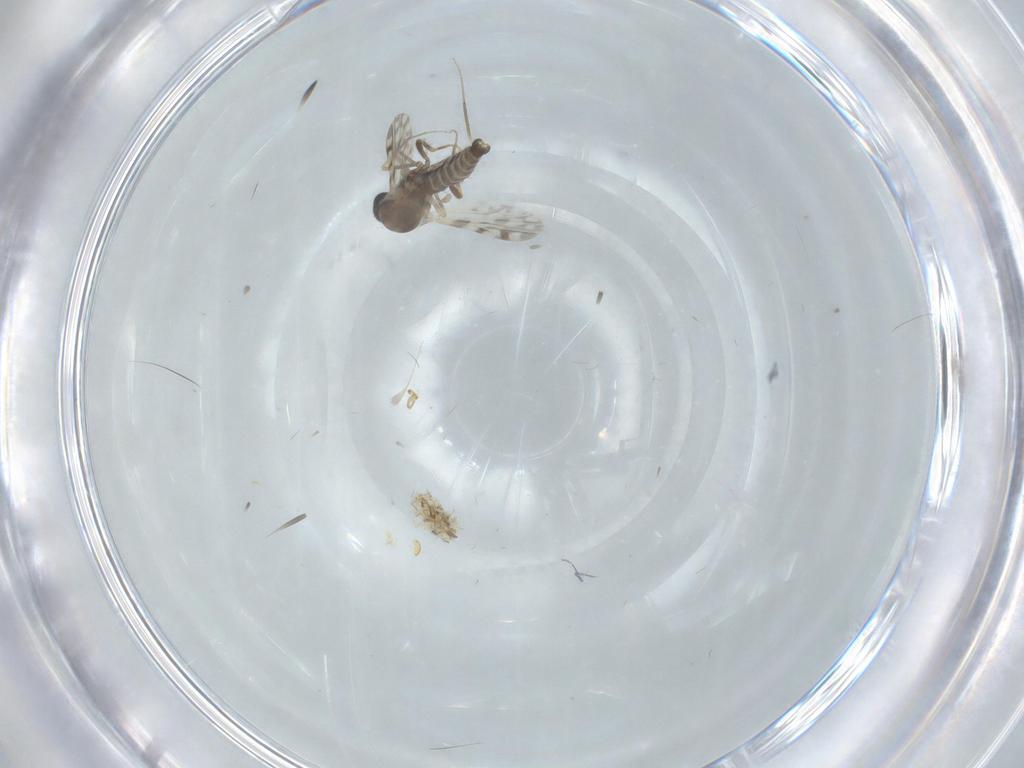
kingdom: Animalia
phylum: Arthropoda
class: Insecta
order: Diptera
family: Ceratopogonidae
